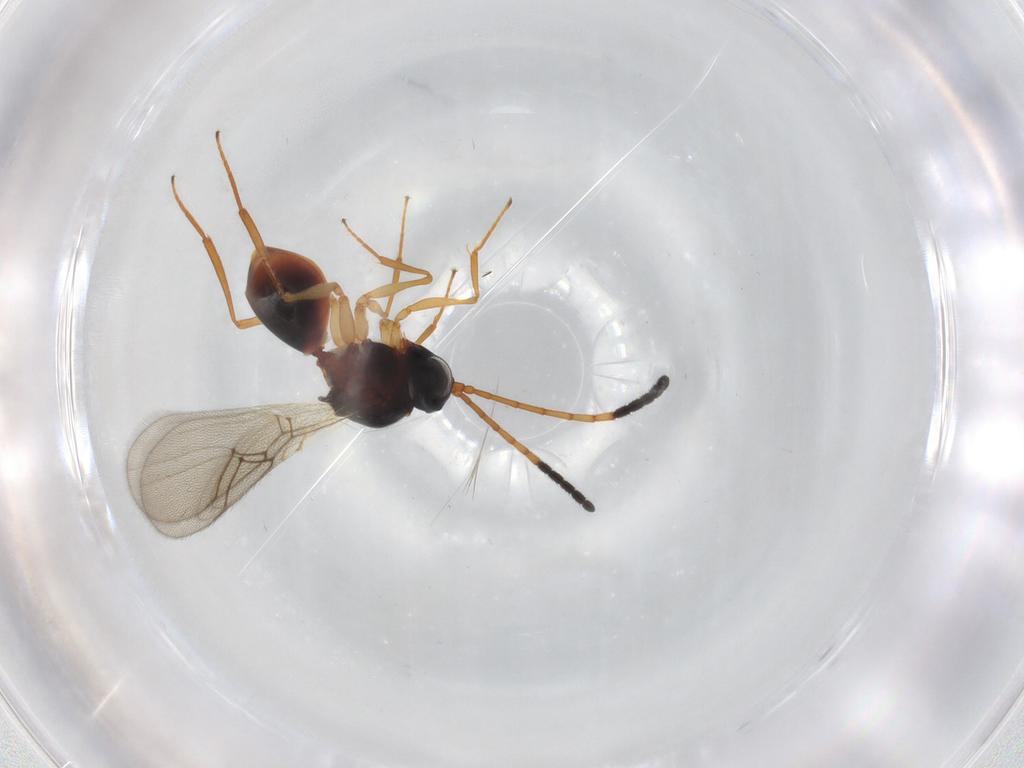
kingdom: Animalia
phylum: Arthropoda
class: Insecta
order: Hymenoptera
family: Figitidae
